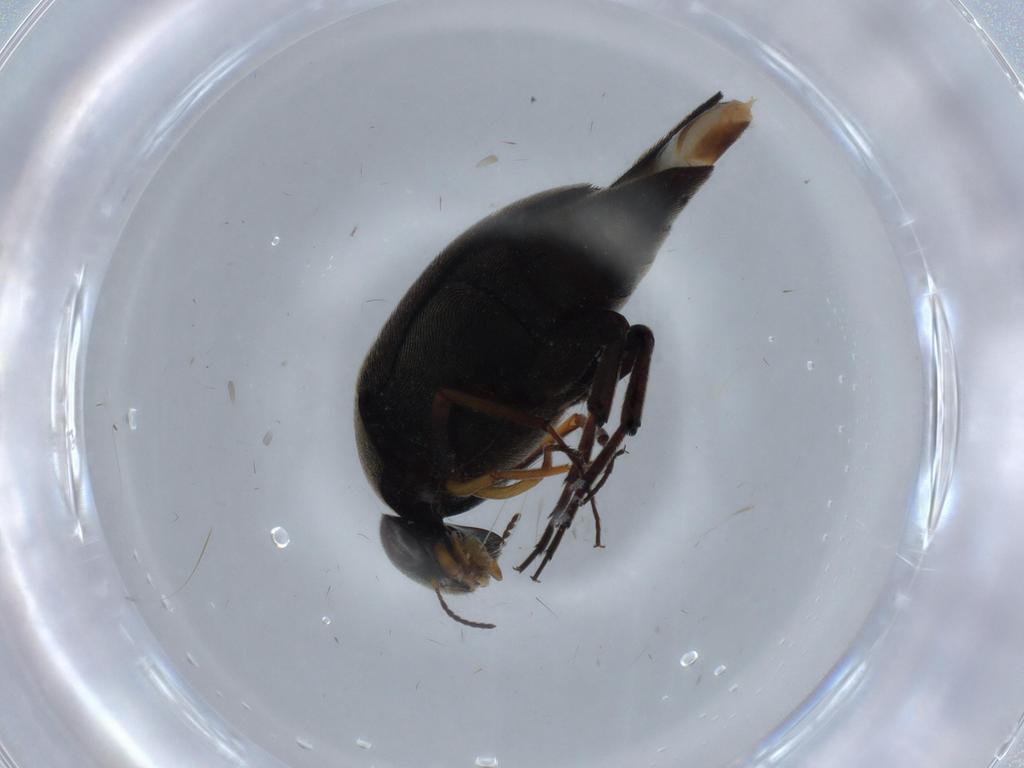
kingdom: Animalia
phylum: Arthropoda
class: Insecta
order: Coleoptera
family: Mordellidae
